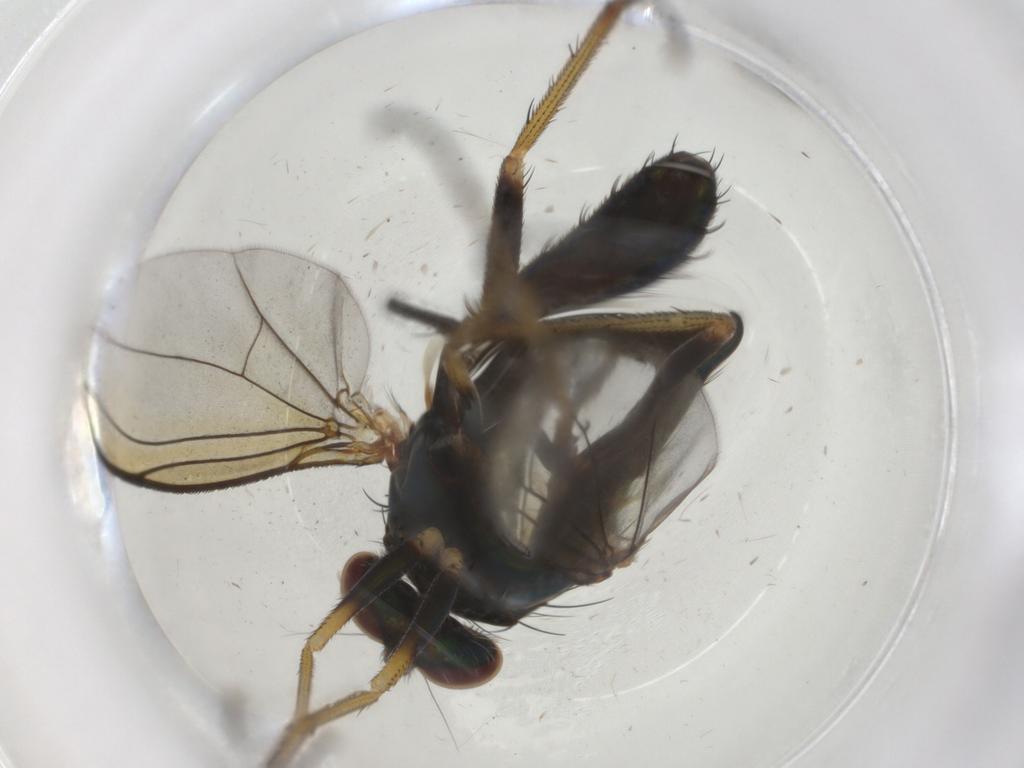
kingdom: Animalia
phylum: Arthropoda
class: Insecta
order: Diptera
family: Dolichopodidae
